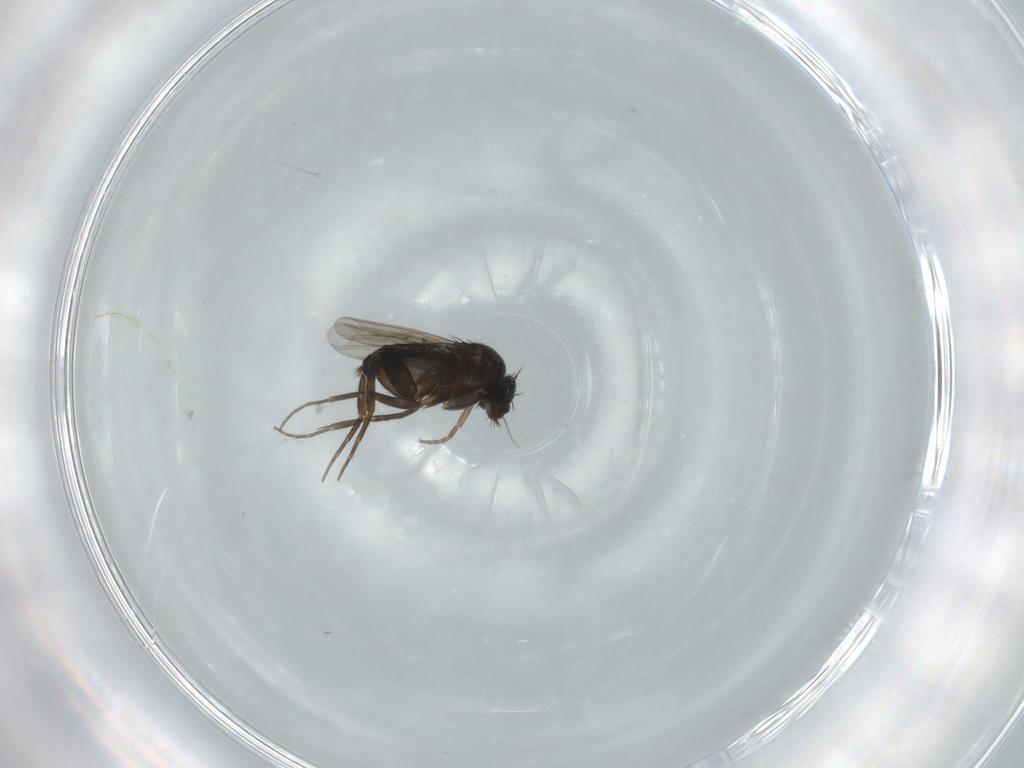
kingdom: Animalia
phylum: Arthropoda
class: Insecta
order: Diptera
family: Phoridae
